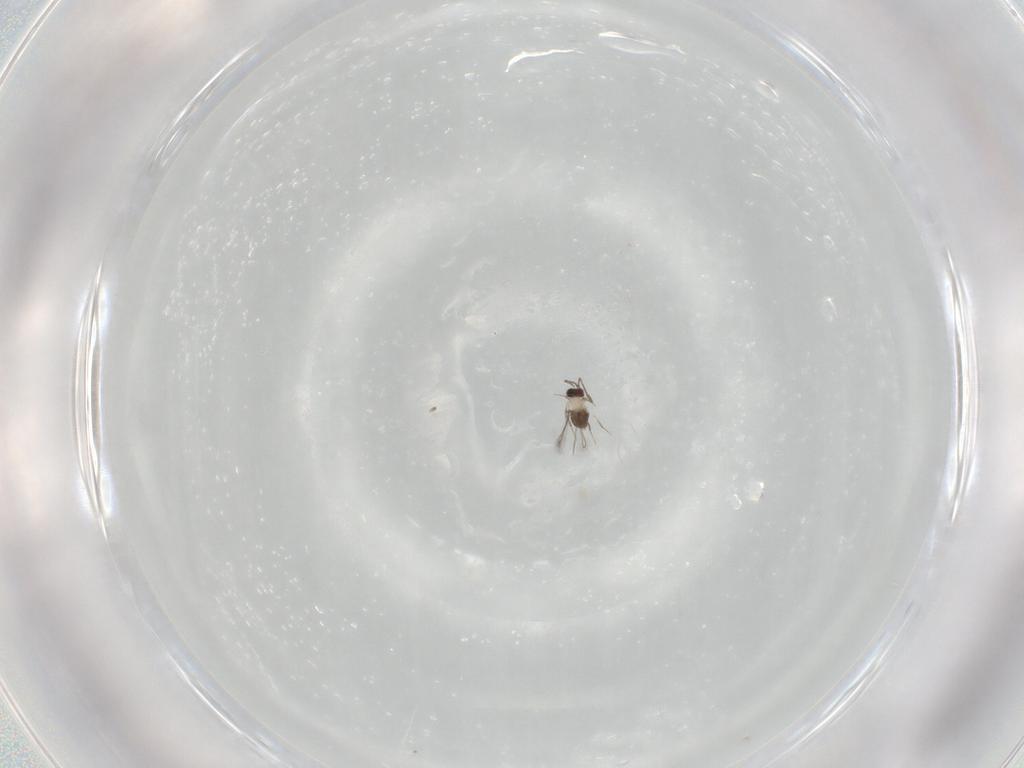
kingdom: Animalia
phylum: Arthropoda
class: Insecta
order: Hymenoptera
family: Mymaridae
